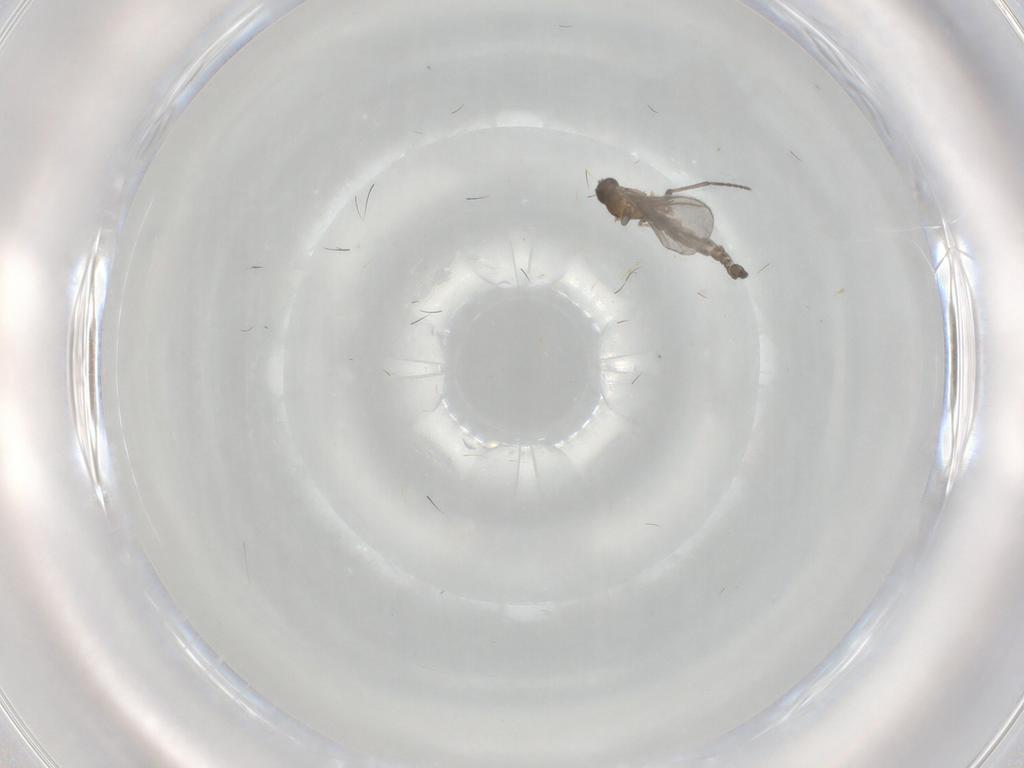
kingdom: Animalia
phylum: Arthropoda
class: Insecta
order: Diptera
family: Sciaridae
